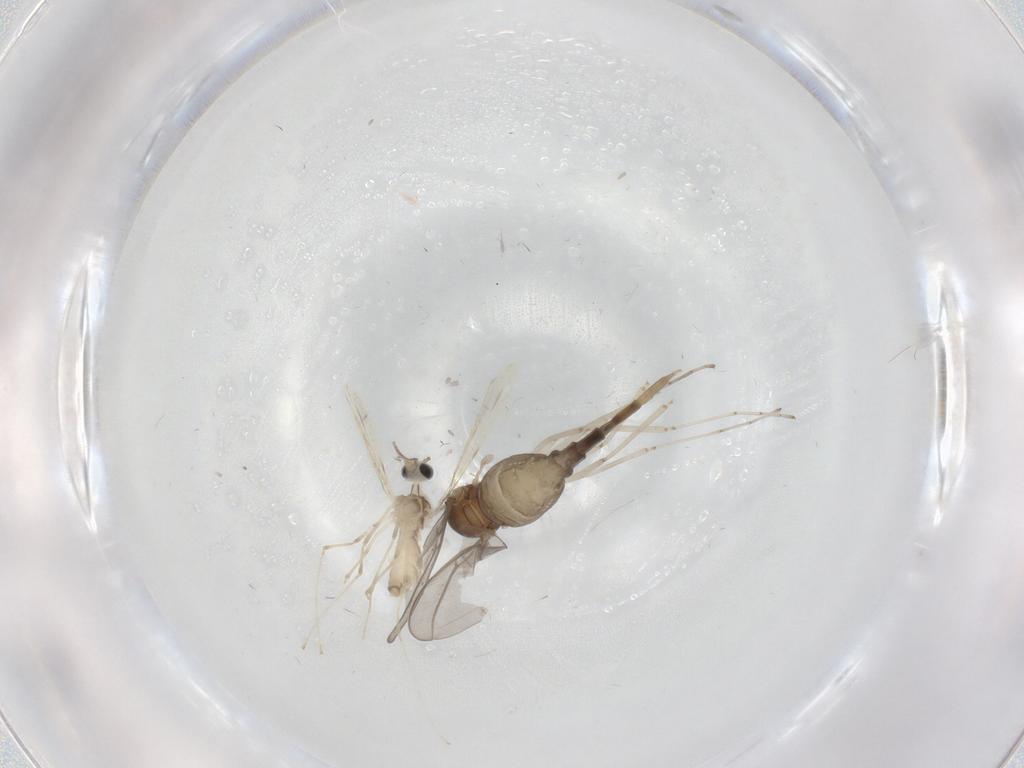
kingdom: Animalia
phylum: Arthropoda
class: Insecta
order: Diptera
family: Cecidomyiidae
